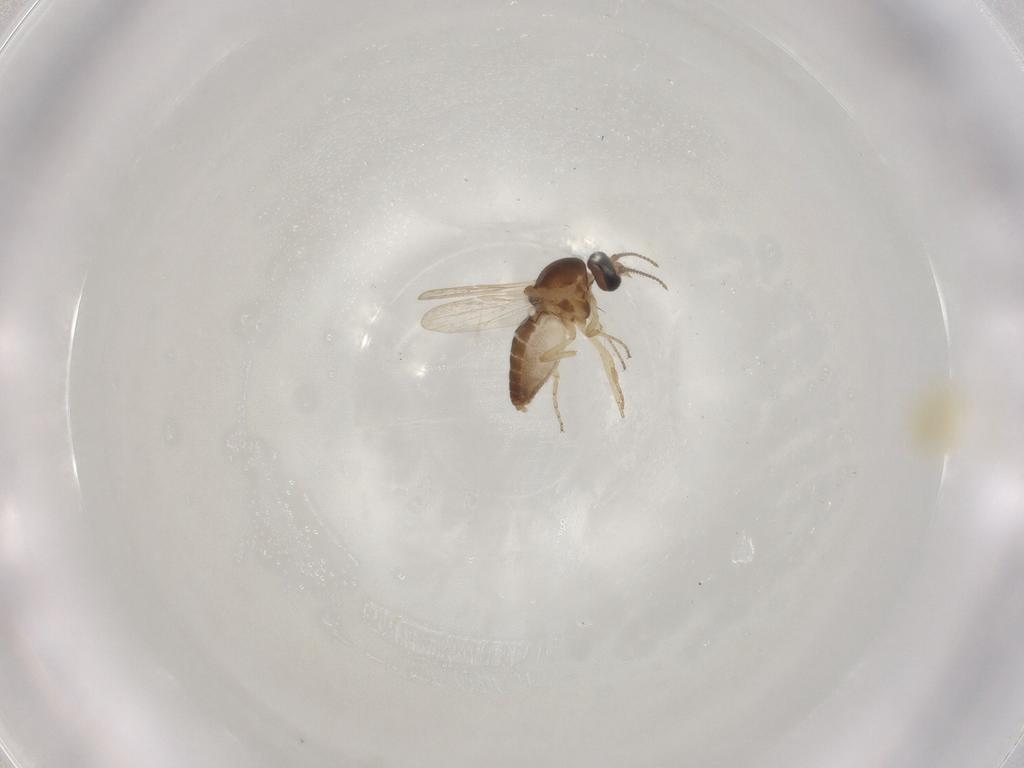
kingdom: Animalia
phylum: Arthropoda
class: Insecta
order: Diptera
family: Ceratopogonidae
